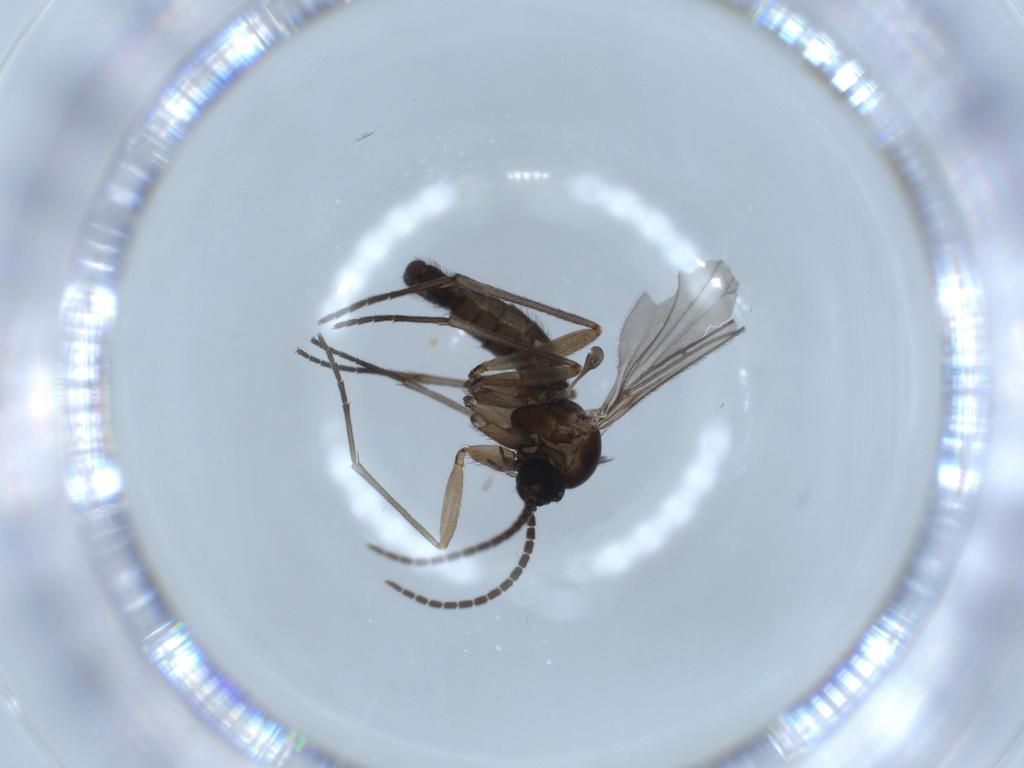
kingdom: Animalia
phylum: Arthropoda
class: Insecta
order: Diptera
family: Sciaridae
